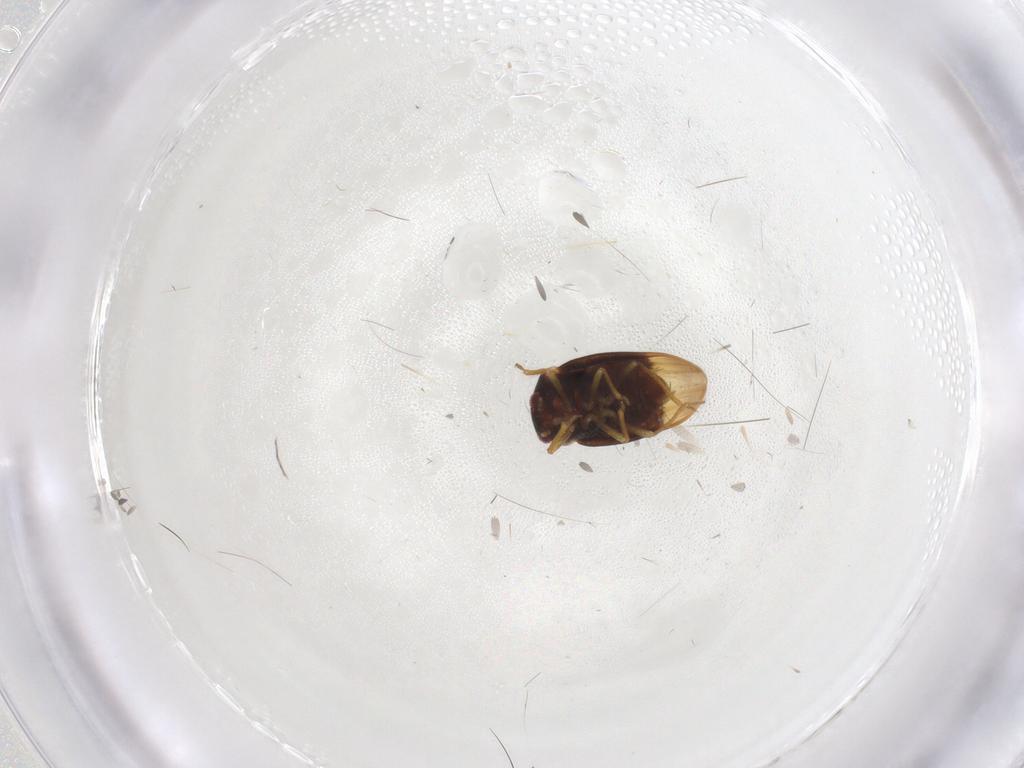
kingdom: Animalia
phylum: Arthropoda
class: Insecta
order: Hemiptera
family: Schizopteridae
